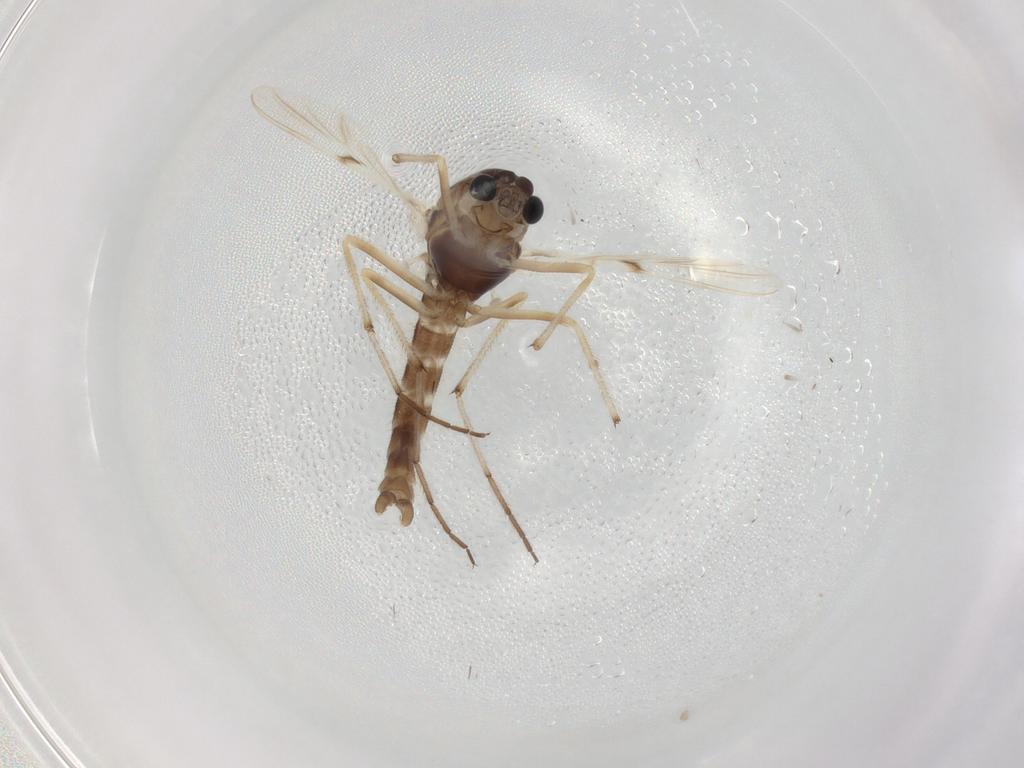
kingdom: Animalia
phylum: Arthropoda
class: Insecta
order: Diptera
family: Chironomidae
